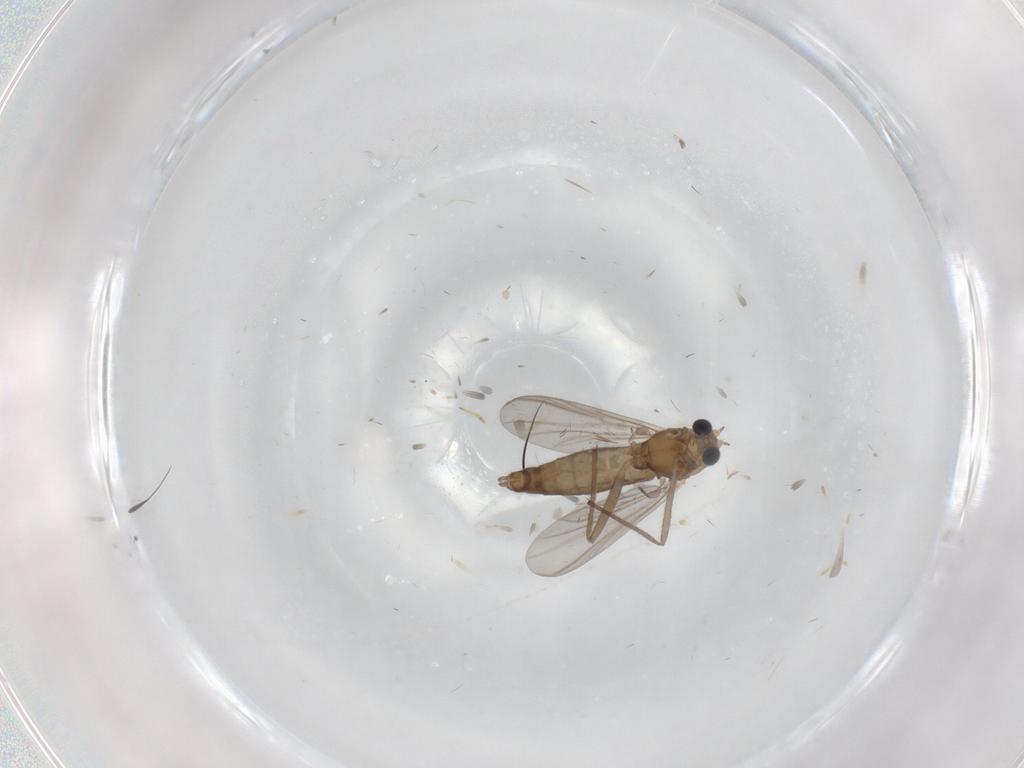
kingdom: Animalia
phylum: Arthropoda
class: Insecta
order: Diptera
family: Chironomidae
